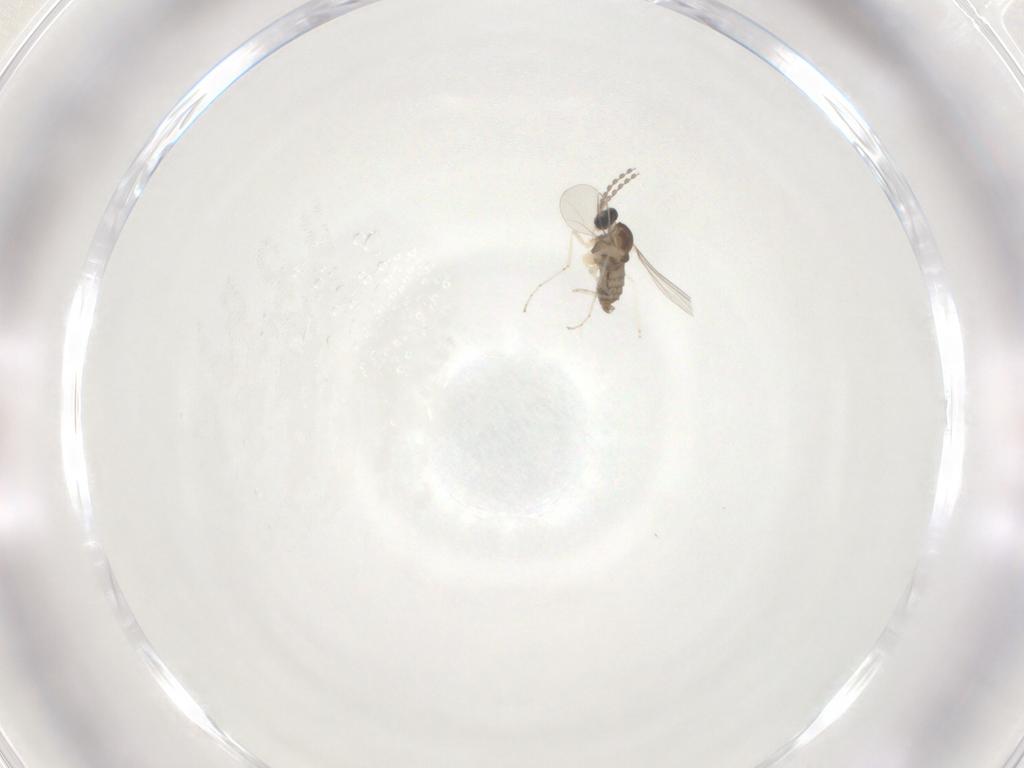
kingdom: Animalia
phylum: Arthropoda
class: Insecta
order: Diptera
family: Cecidomyiidae
